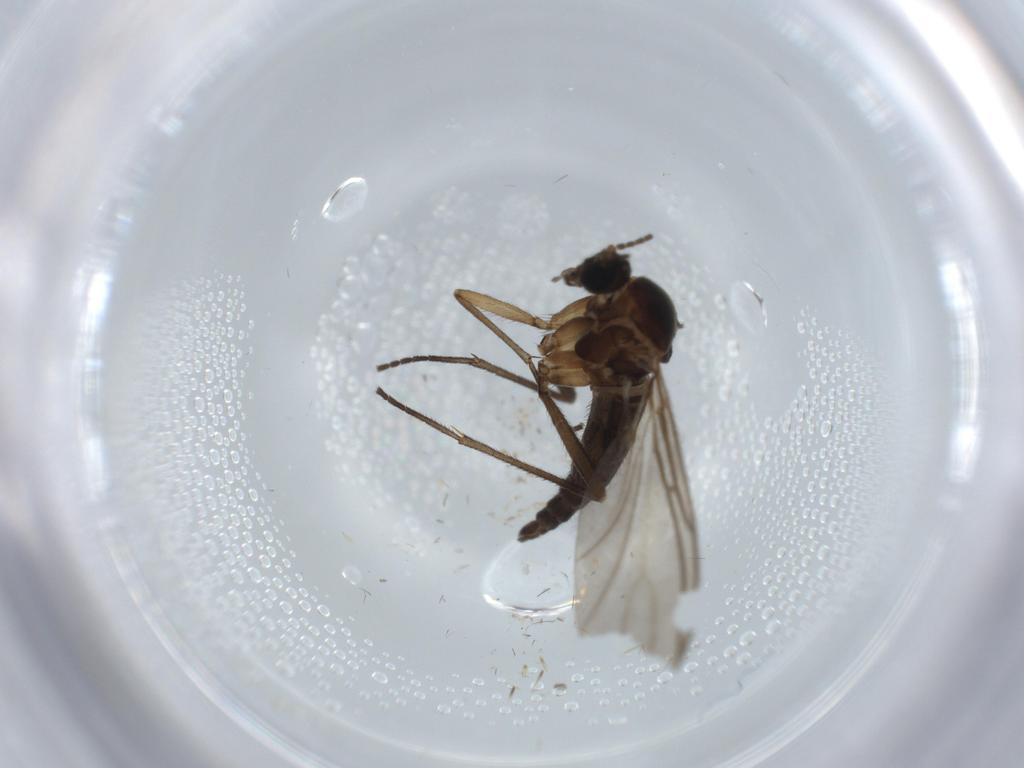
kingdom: Animalia
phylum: Arthropoda
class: Insecta
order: Diptera
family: Sciaridae
